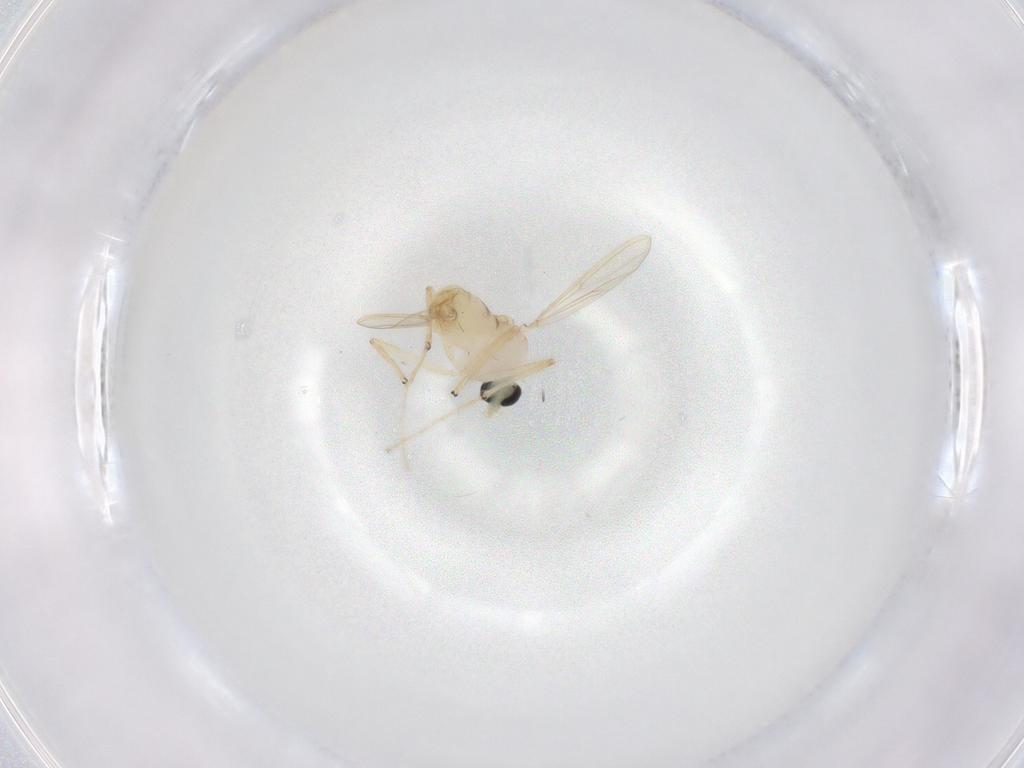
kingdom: Animalia
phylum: Arthropoda
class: Insecta
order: Diptera
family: Chironomidae
